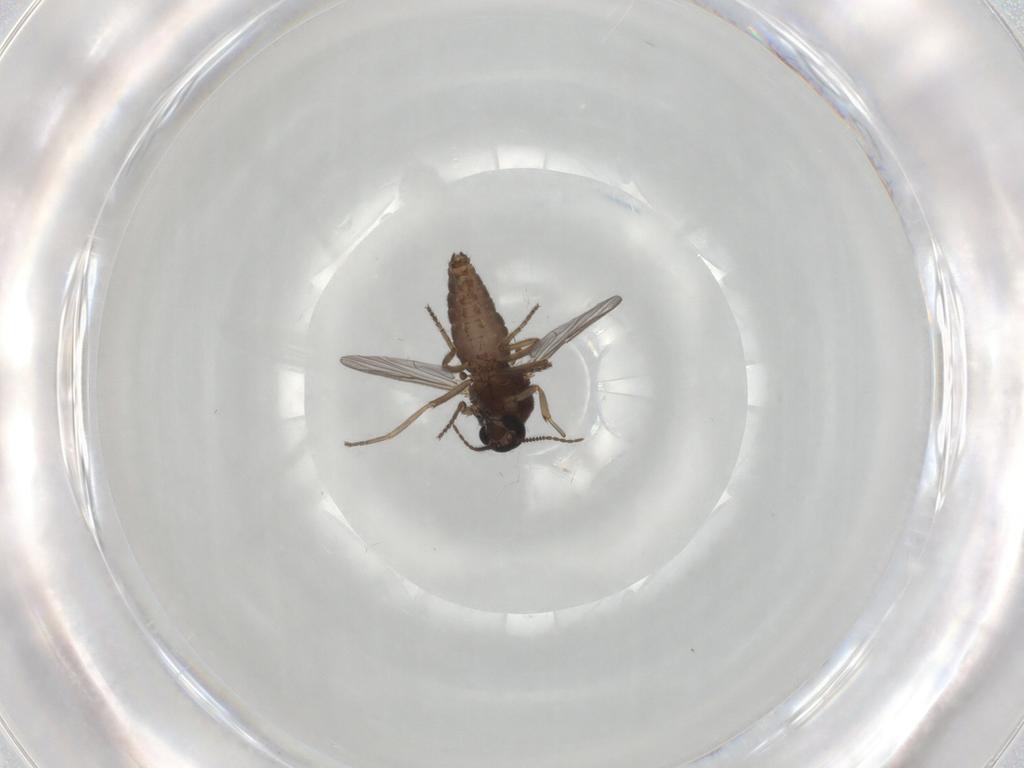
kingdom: Animalia
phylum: Arthropoda
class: Insecta
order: Diptera
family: Ceratopogonidae
